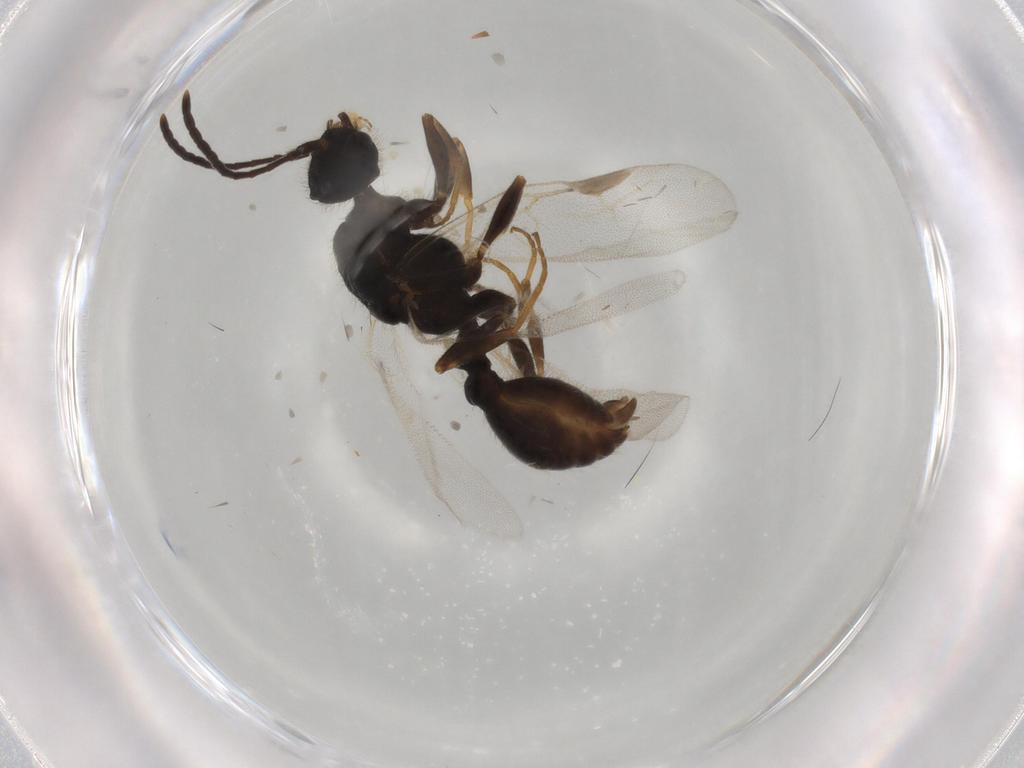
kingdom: Animalia
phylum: Arthropoda
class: Insecta
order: Hymenoptera
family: Formicidae
